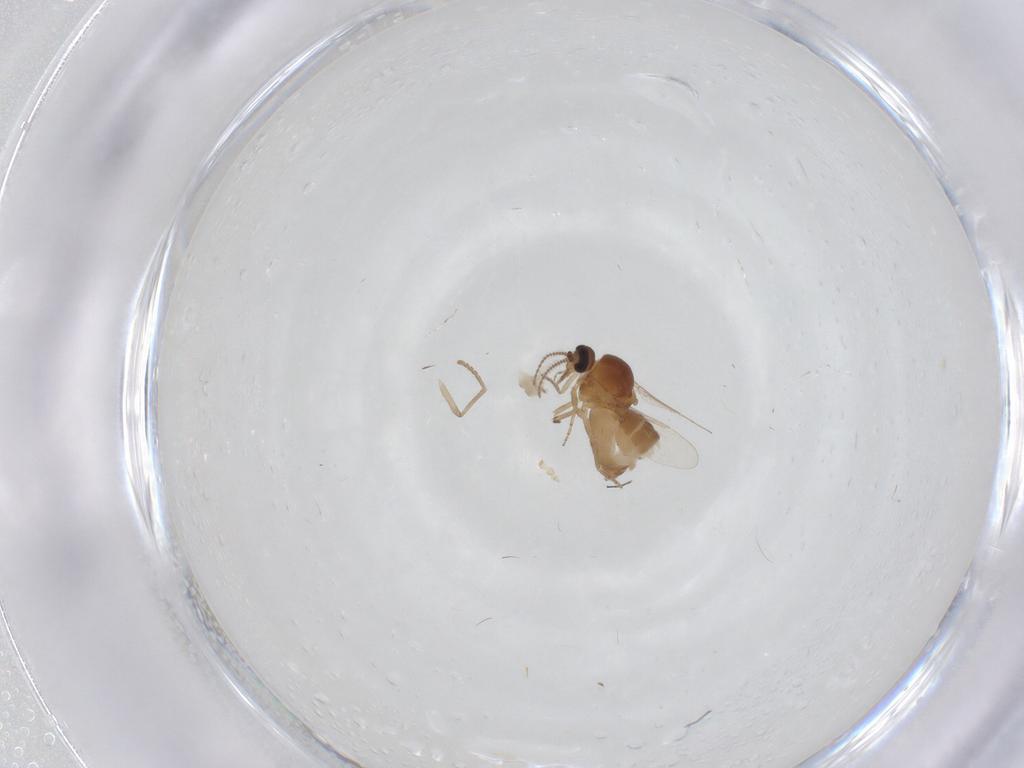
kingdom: Animalia
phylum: Arthropoda
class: Insecta
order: Diptera
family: Ceratopogonidae
